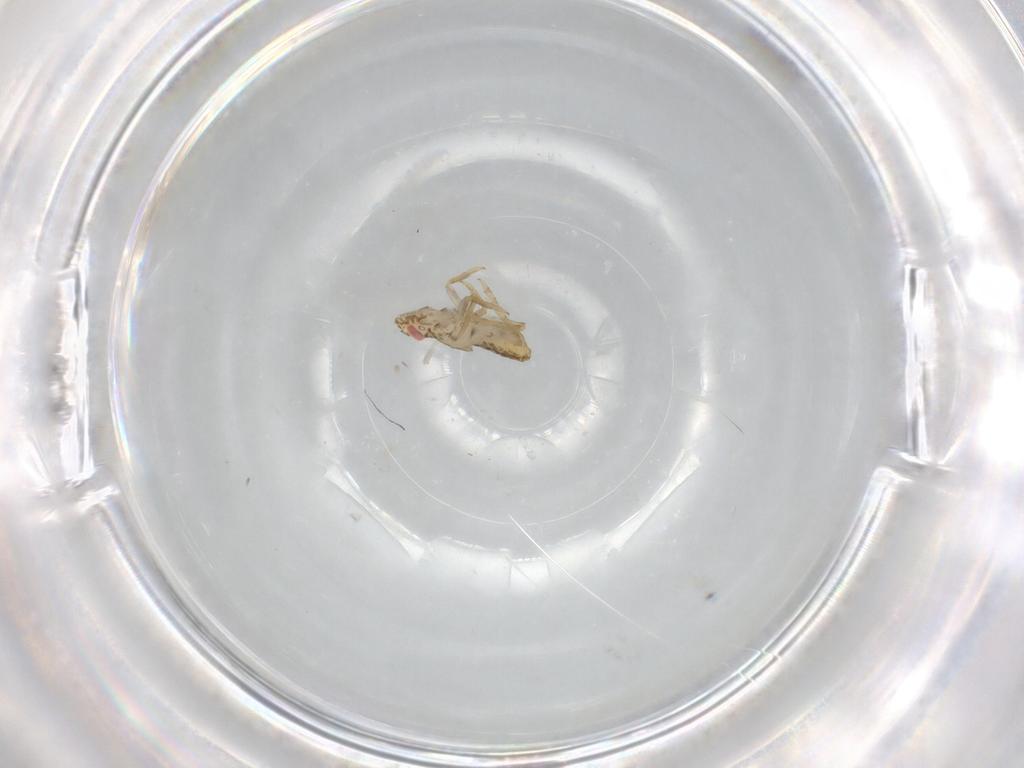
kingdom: Animalia
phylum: Arthropoda
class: Insecta
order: Hemiptera
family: Delphacidae
